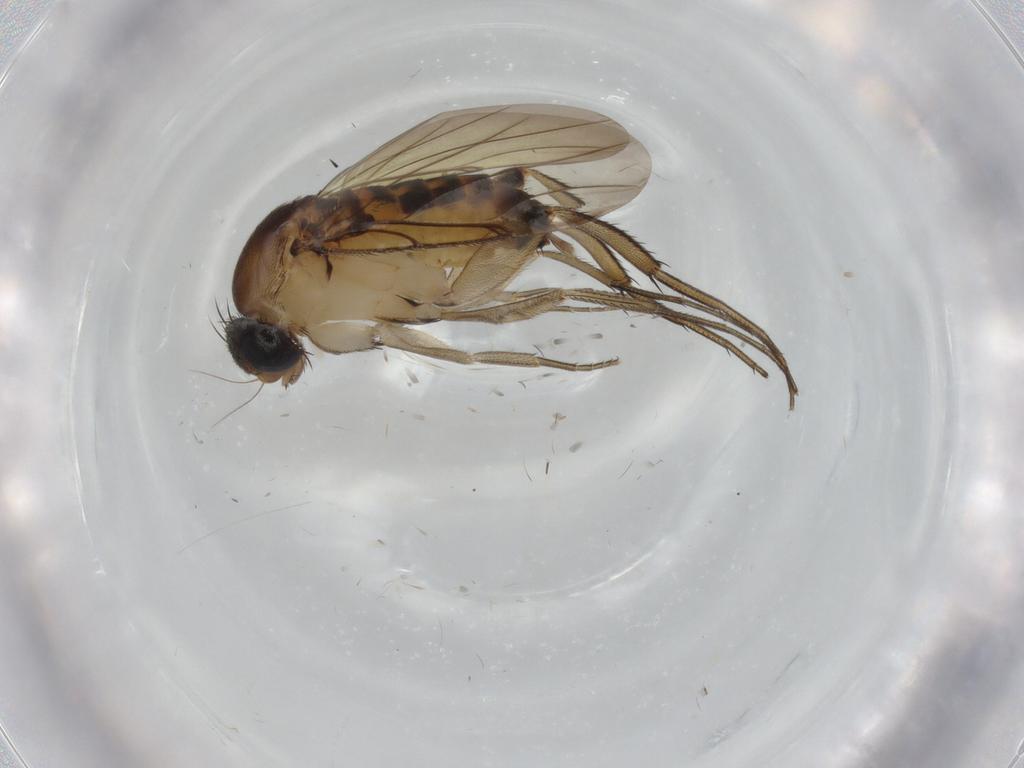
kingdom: Animalia
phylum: Arthropoda
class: Insecta
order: Diptera
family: Phoridae
